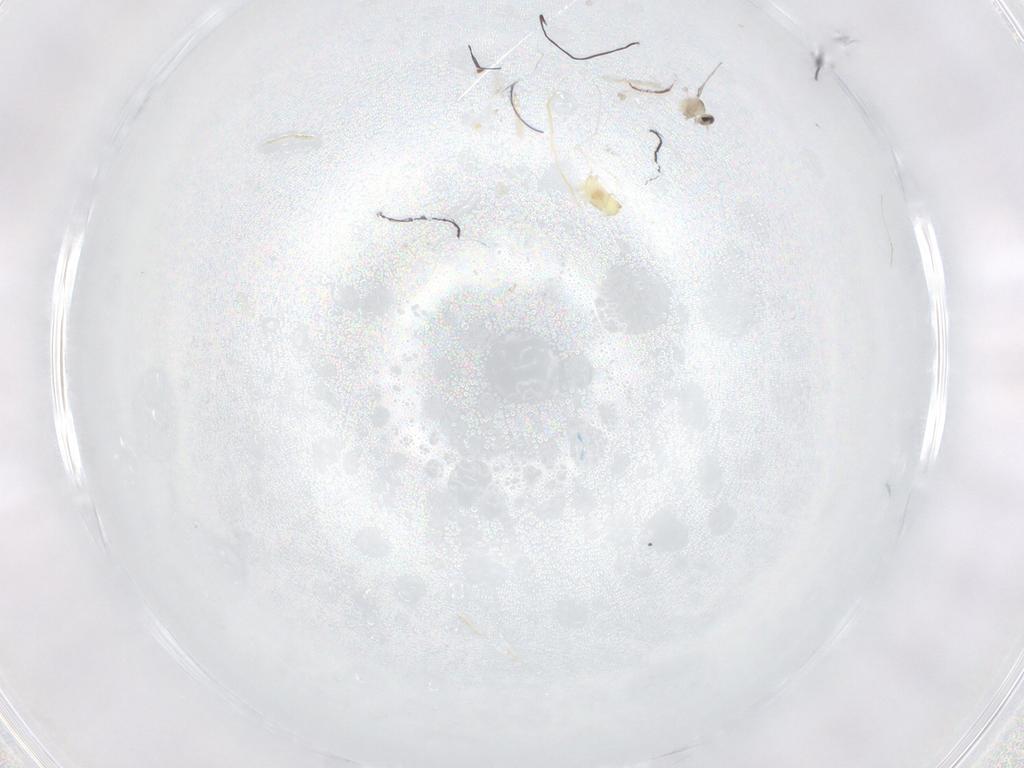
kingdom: Animalia
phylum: Arthropoda
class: Insecta
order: Diptera
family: Cecidomyiidae
